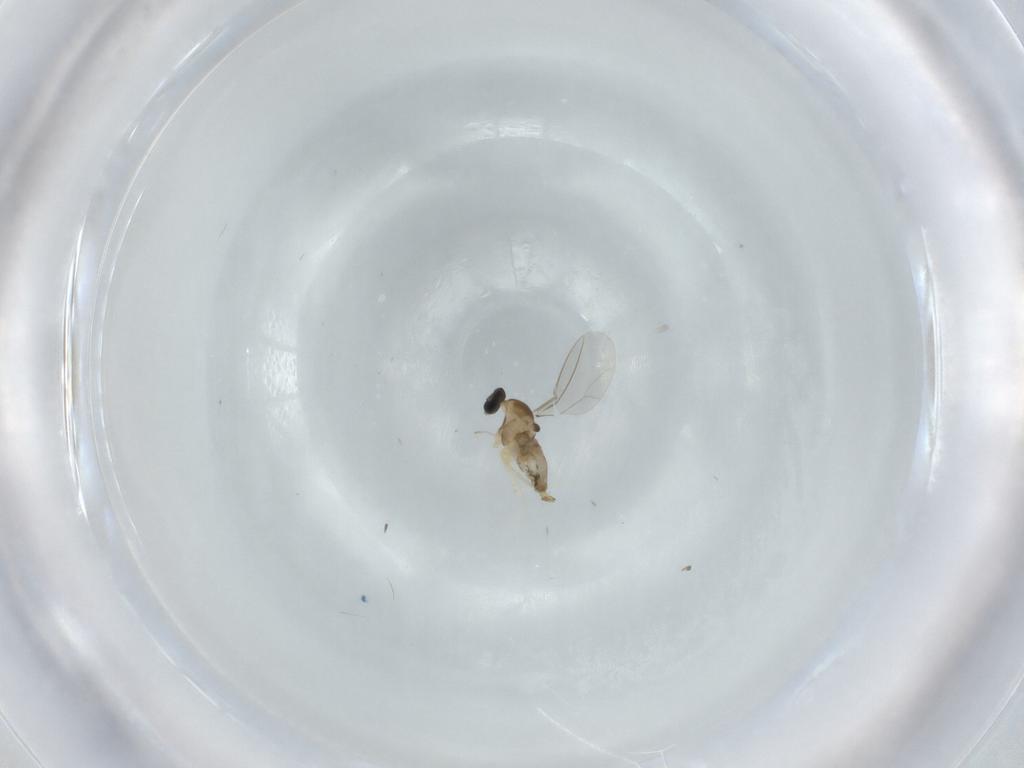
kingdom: Animalia
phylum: Arthropoda
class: Insecta
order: Diptera
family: Cecidomyiidae
